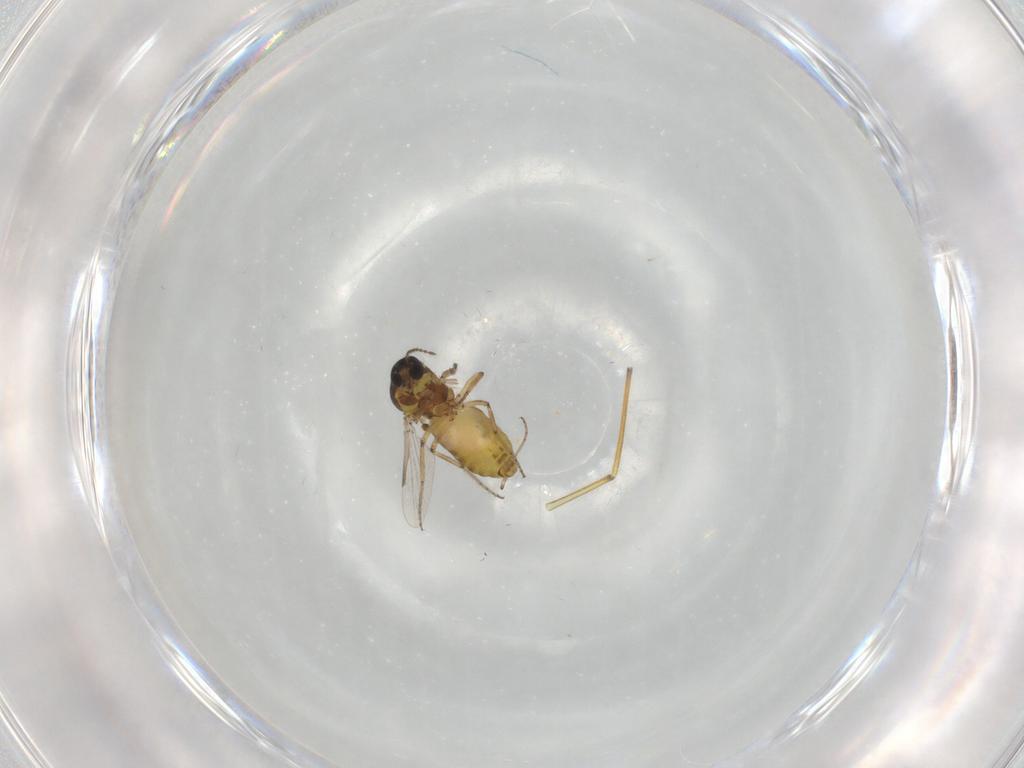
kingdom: Animalia
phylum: Arthropoda
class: Insecta
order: Diptera
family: Ceratopogonidae
